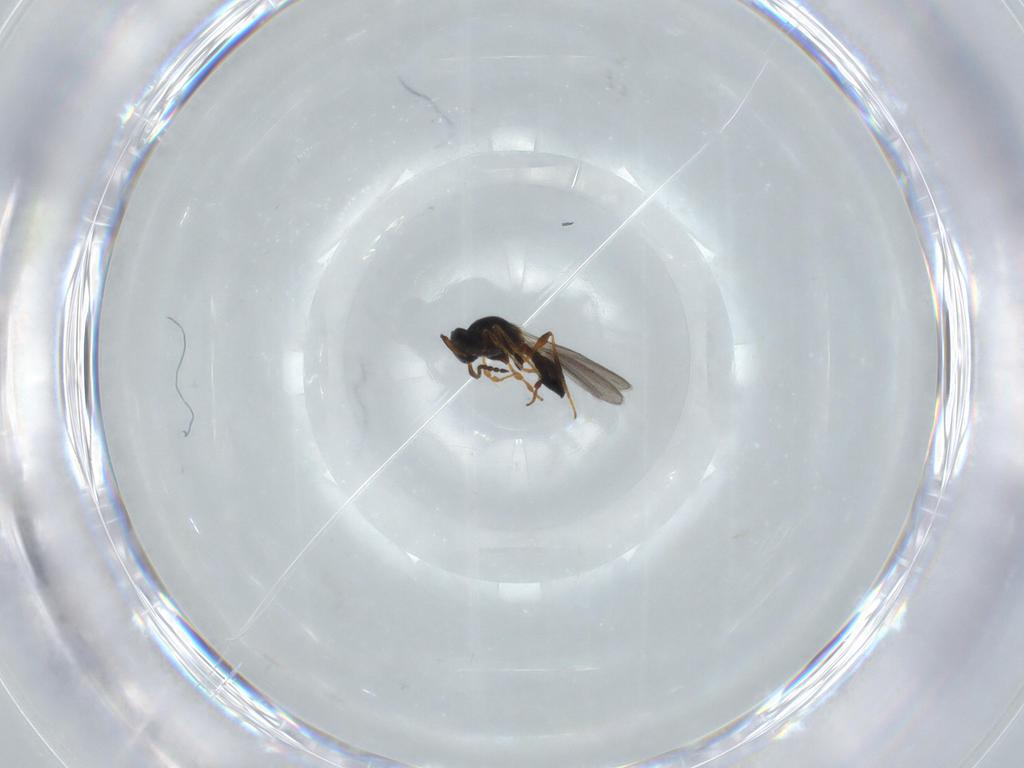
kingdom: Animalia
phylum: Arthropoda
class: Insecta
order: Hymenoptera
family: Platygastridae
